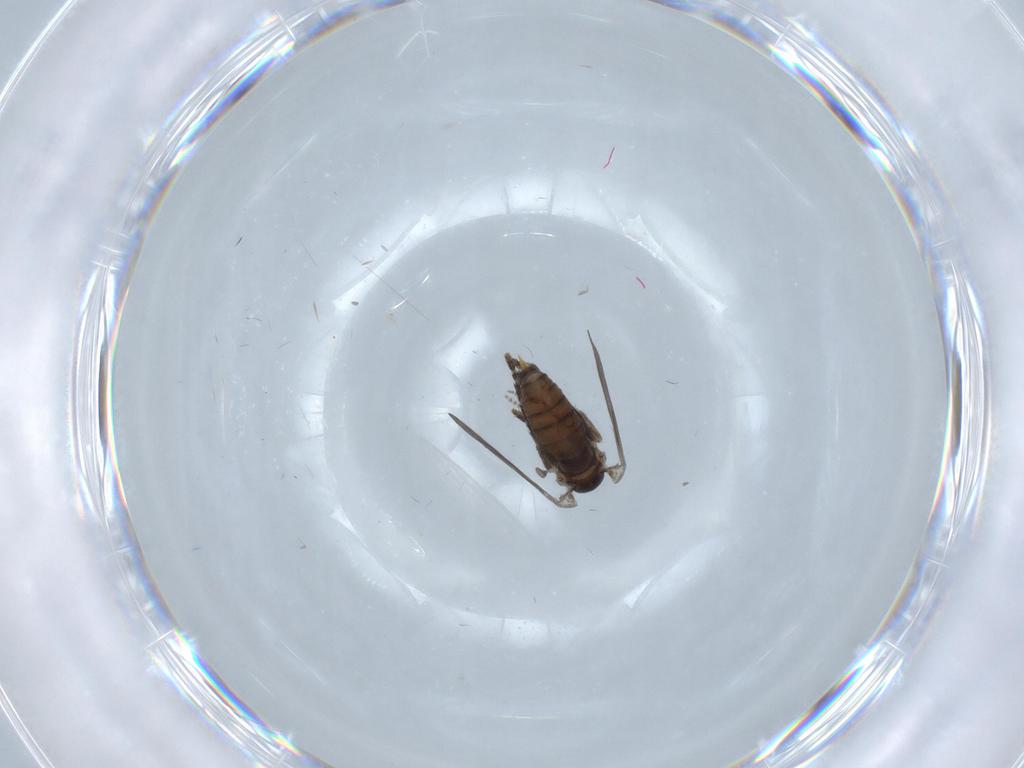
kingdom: Animalia
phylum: Arthropoda
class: Insecta
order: Diptera
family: Psychodidae
